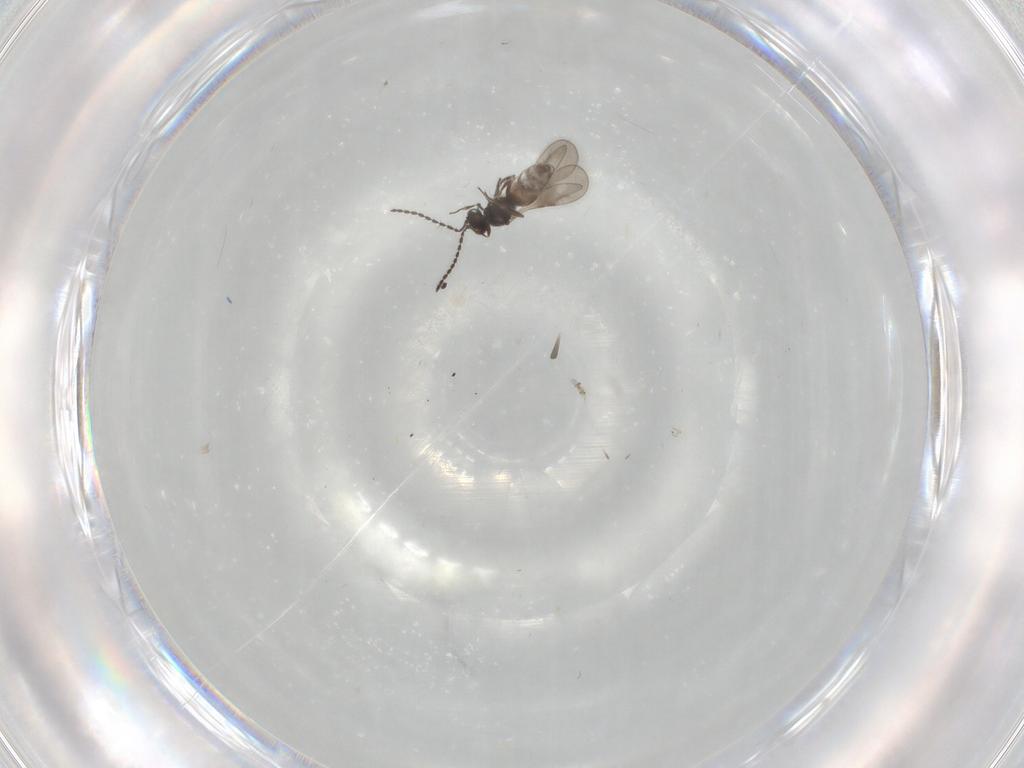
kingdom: Animalia
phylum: Arthropoda
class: Insecta
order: Hymenoptera
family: Ceraphronidae
